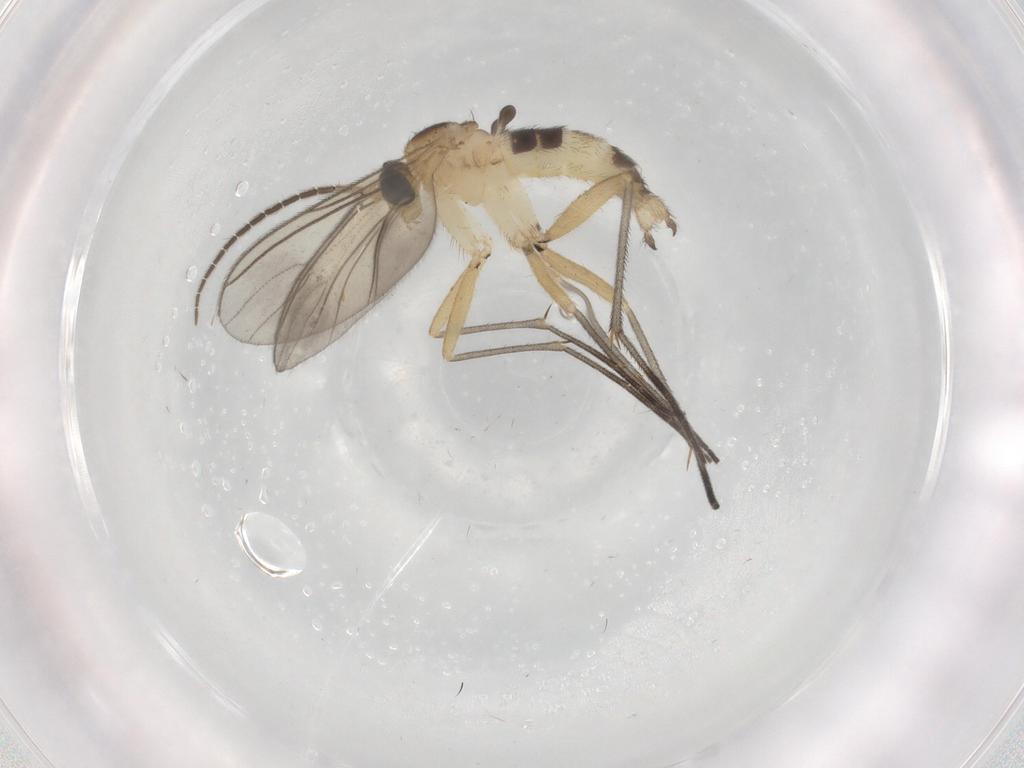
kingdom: Animalia
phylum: Arthropoda
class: Insecta
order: Diptera
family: Sciaridae
